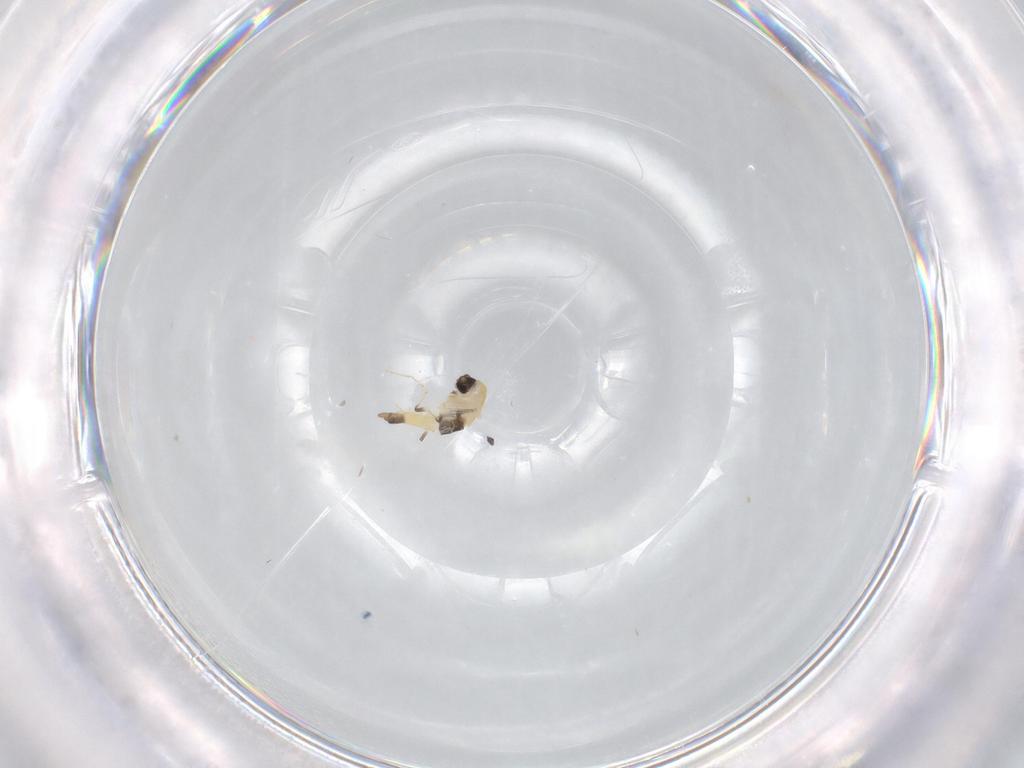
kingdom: Animalia
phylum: Arthropoda
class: Insecta
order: Diptera
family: Chironomidae
